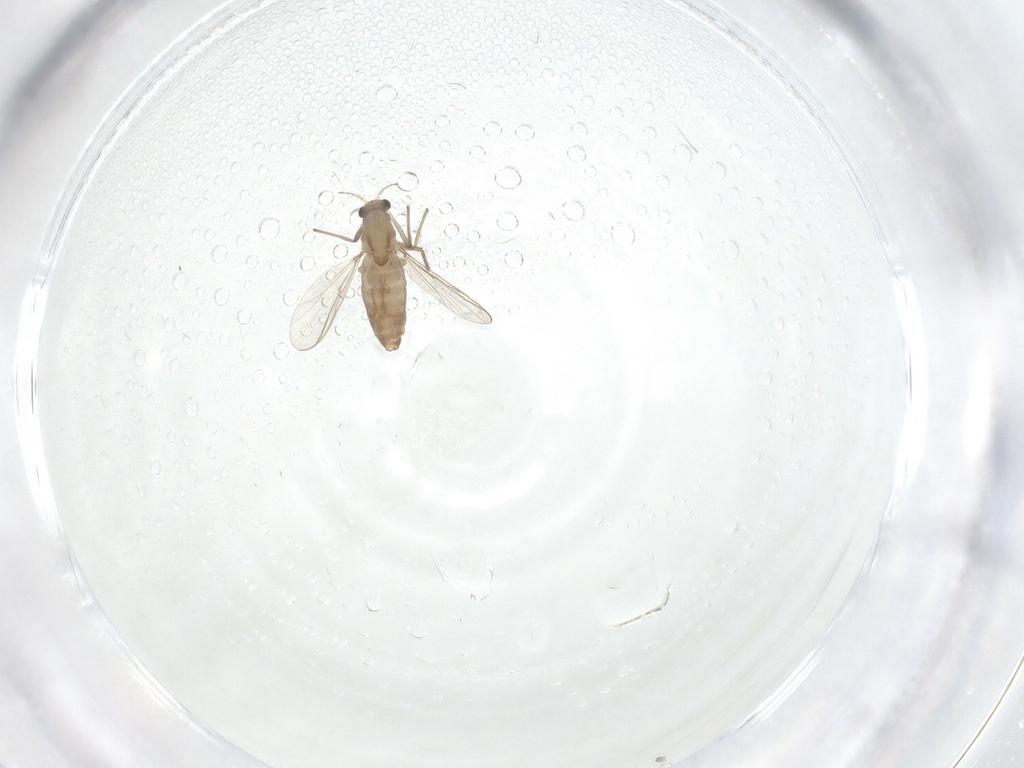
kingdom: Animalia
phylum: Arthropoda
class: Insecta
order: Diptera
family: Chironomidae
